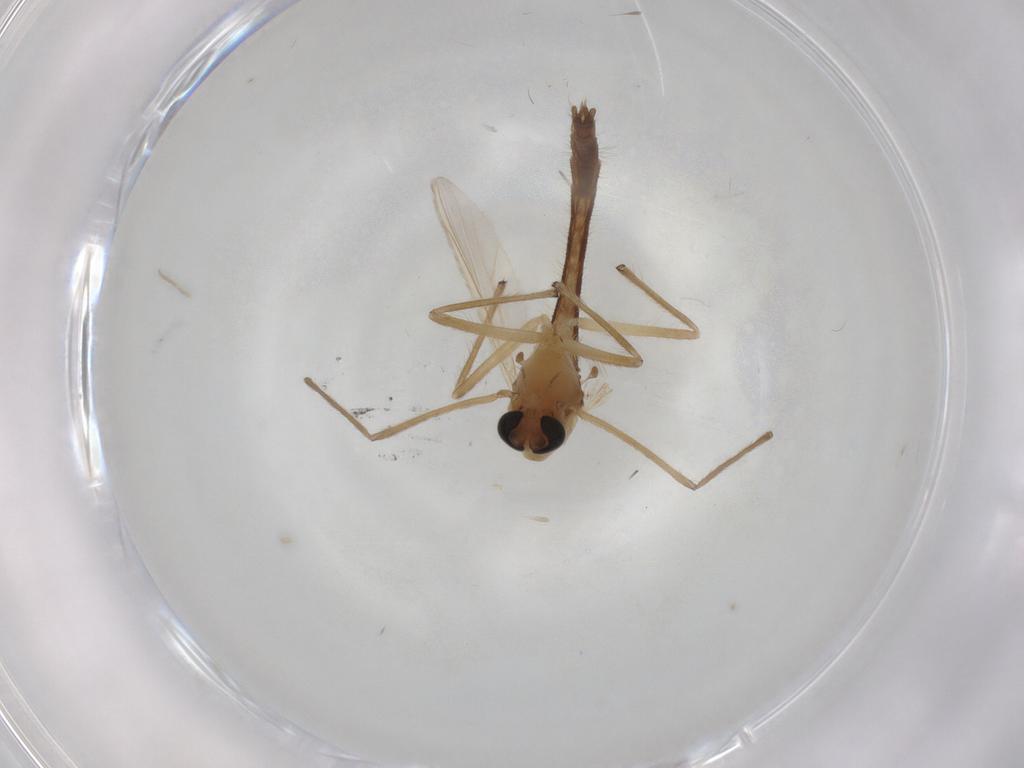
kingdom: Animalia
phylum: Arthropoda
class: Insecta
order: Diptera
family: Chironomidae
